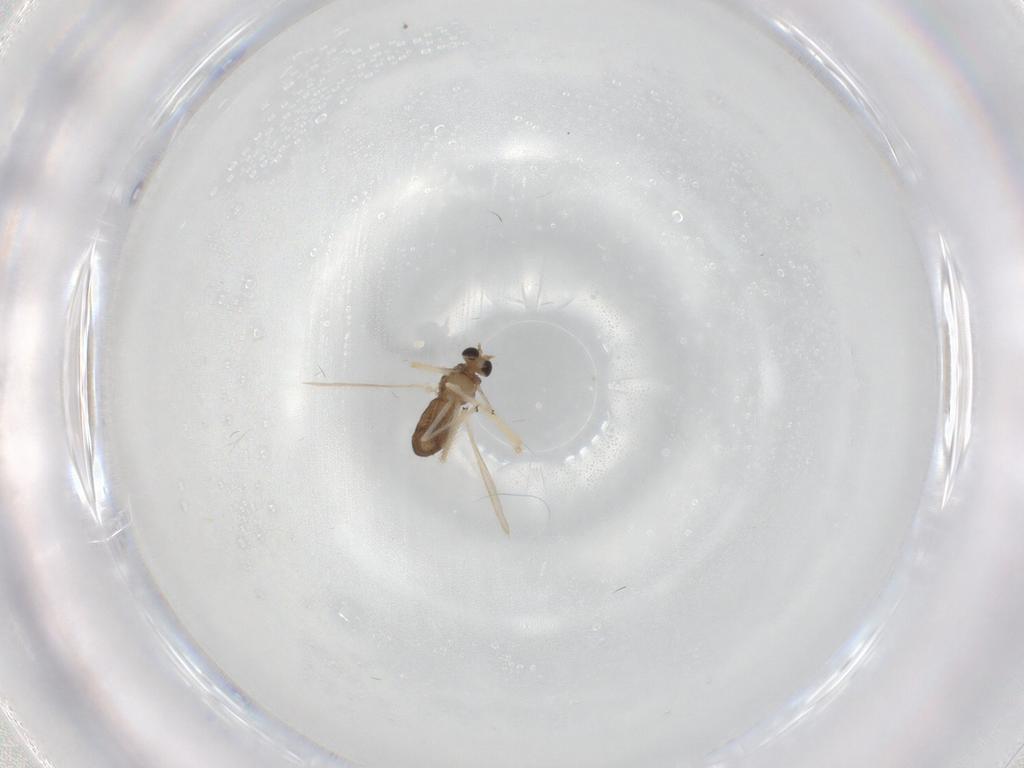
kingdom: Animalia
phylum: Arthropoda
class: Insecta
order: Diptera
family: Chironomidae
